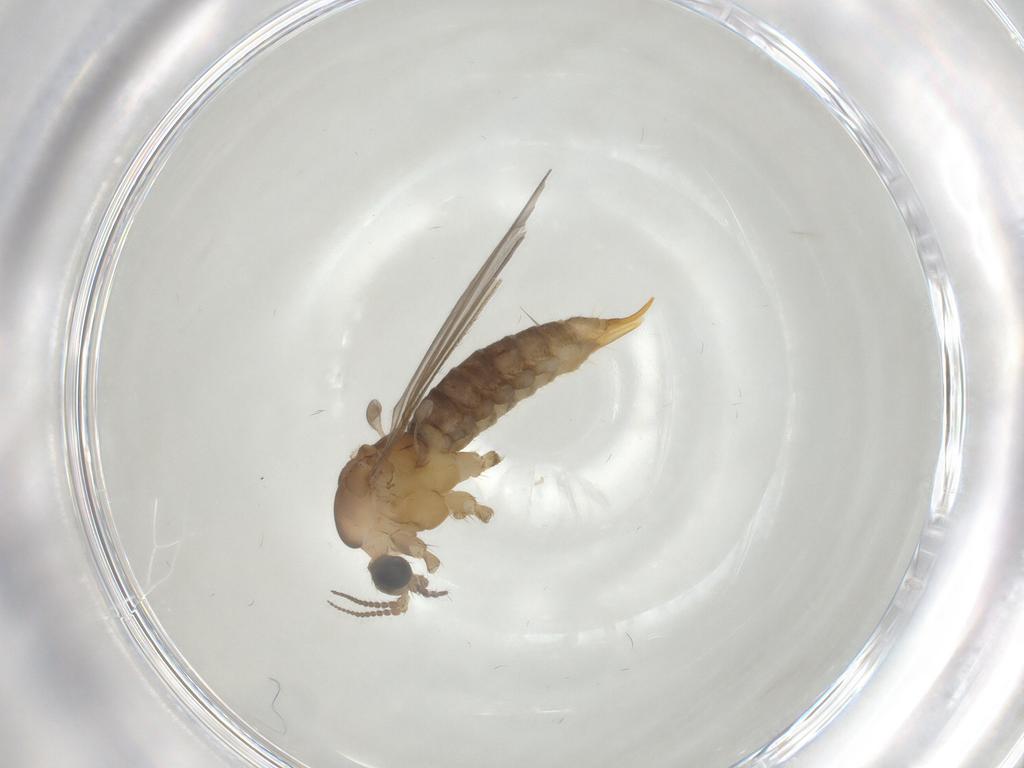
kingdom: Animalia
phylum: Arthropoda
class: Insecta
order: Diptera
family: Limoniidae
